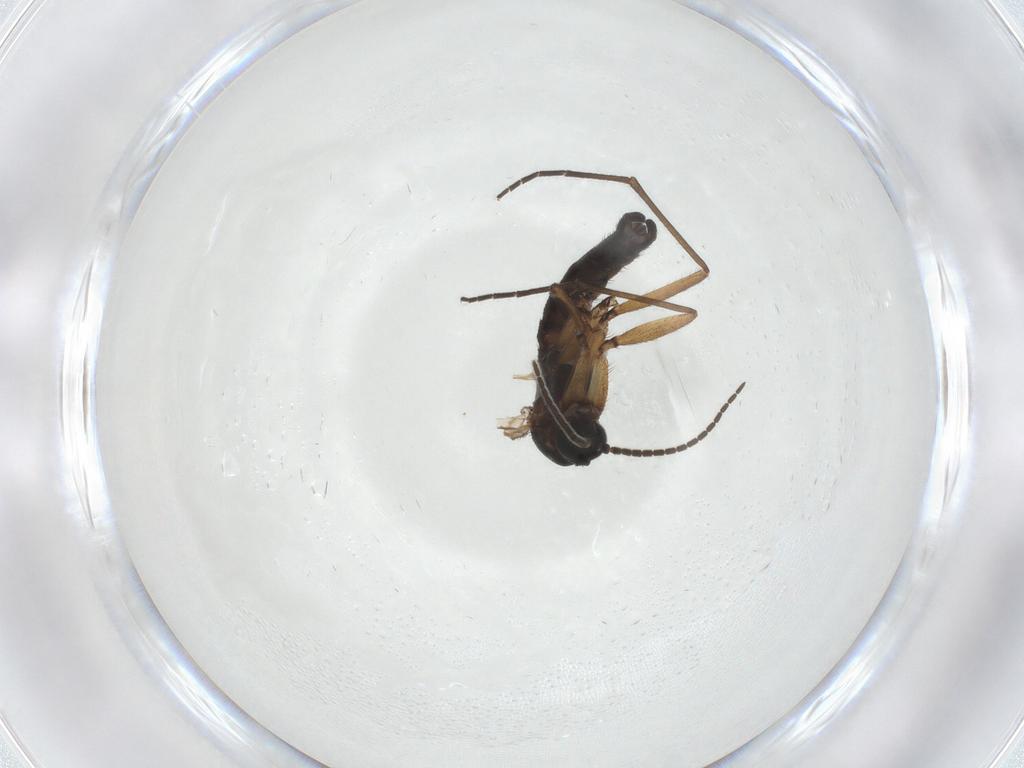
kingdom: Animalia
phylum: Arthropoda
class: Insecta
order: Diptera
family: Sciaridae
